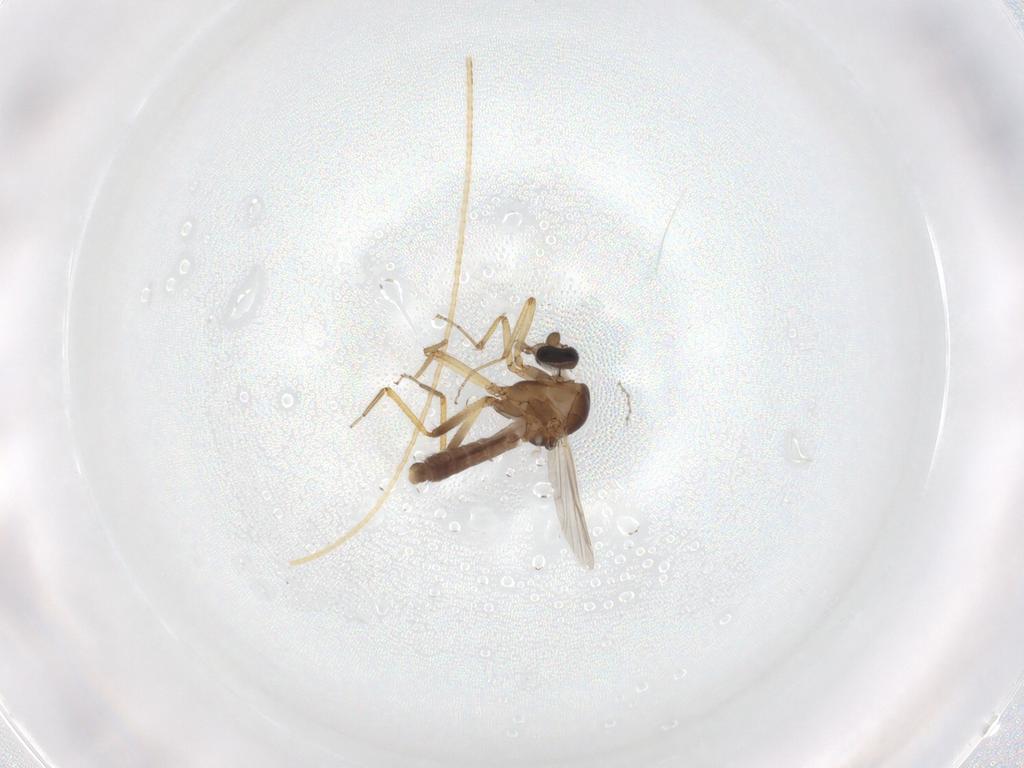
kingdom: Animalia
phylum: Arthropoda
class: Insecta
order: Diptera
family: Ceratopogonidae
